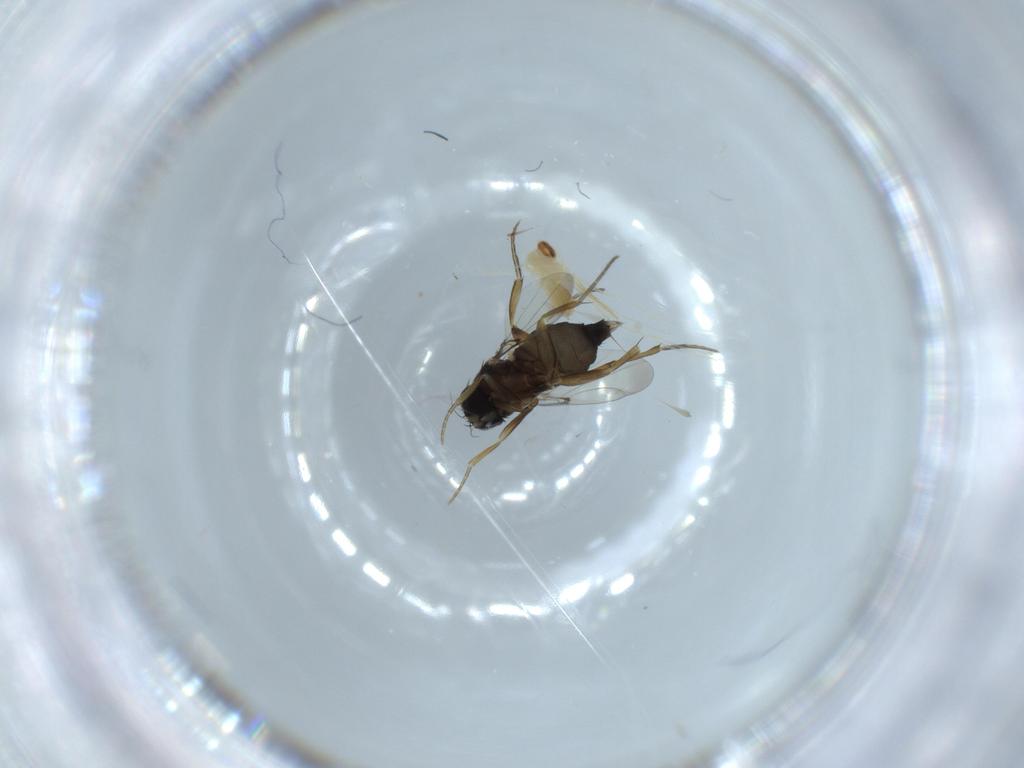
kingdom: Animalia
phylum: Arthropoda
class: Insecta
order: Diptera
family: Phoridae
